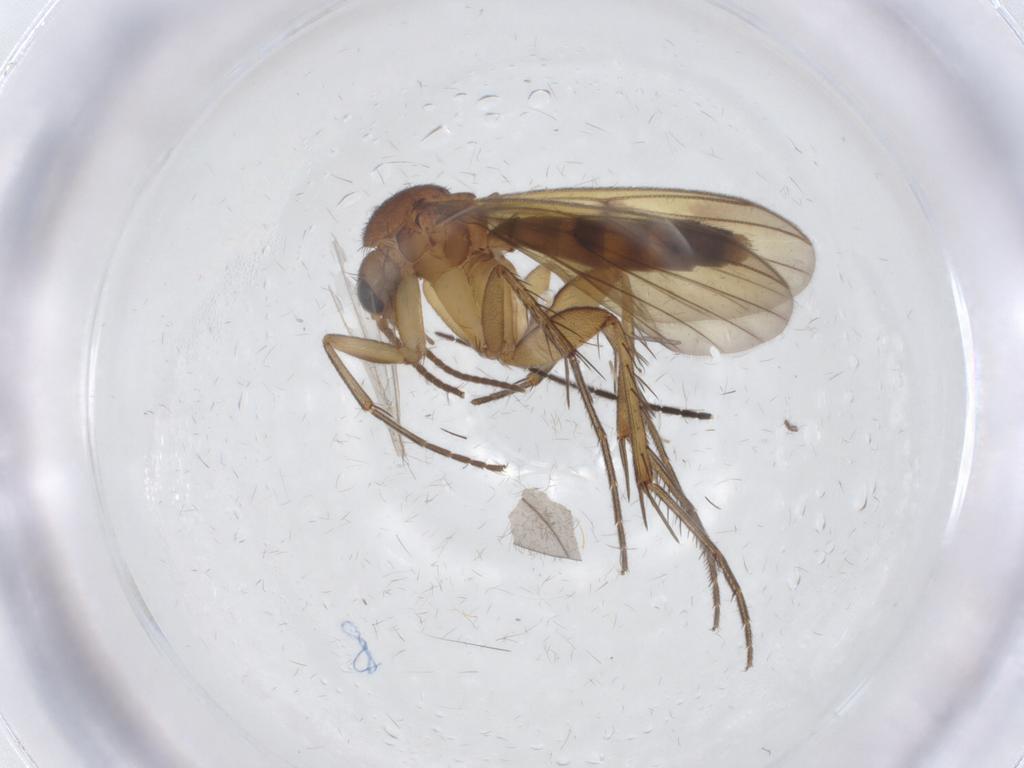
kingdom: Animalia
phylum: Arthropoda
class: Insecta
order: Diptera
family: Mycetophilidae
